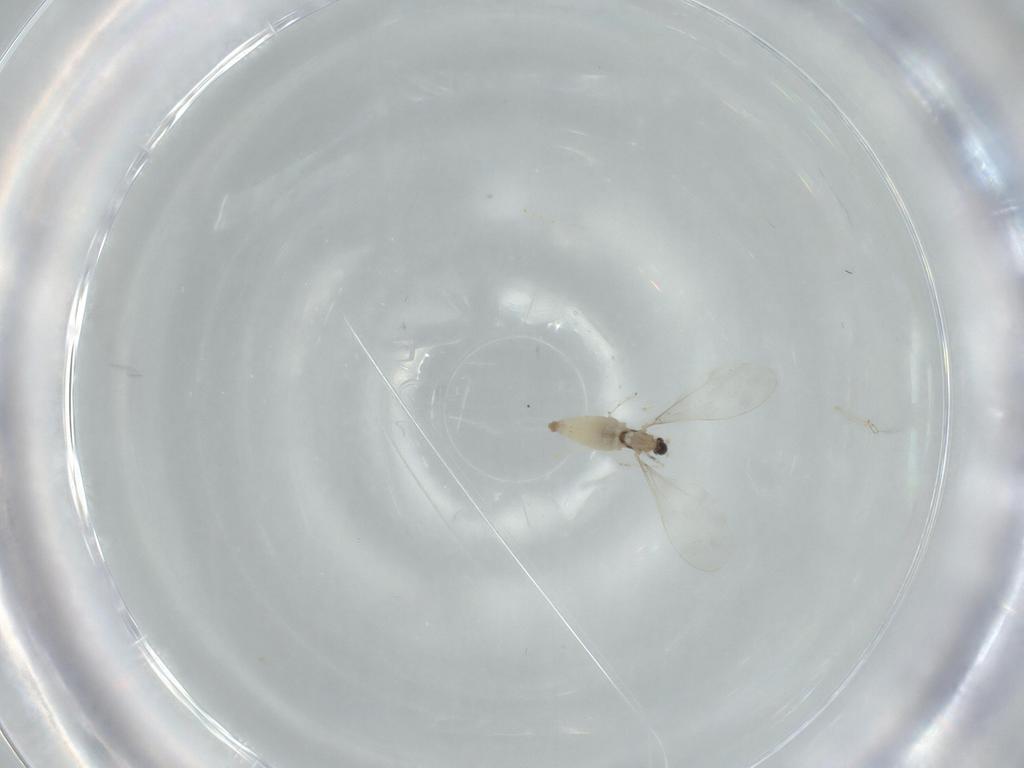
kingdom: Animalia
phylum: Arthropoda
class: Insecta
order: Diptera
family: Cecidomyiidae
